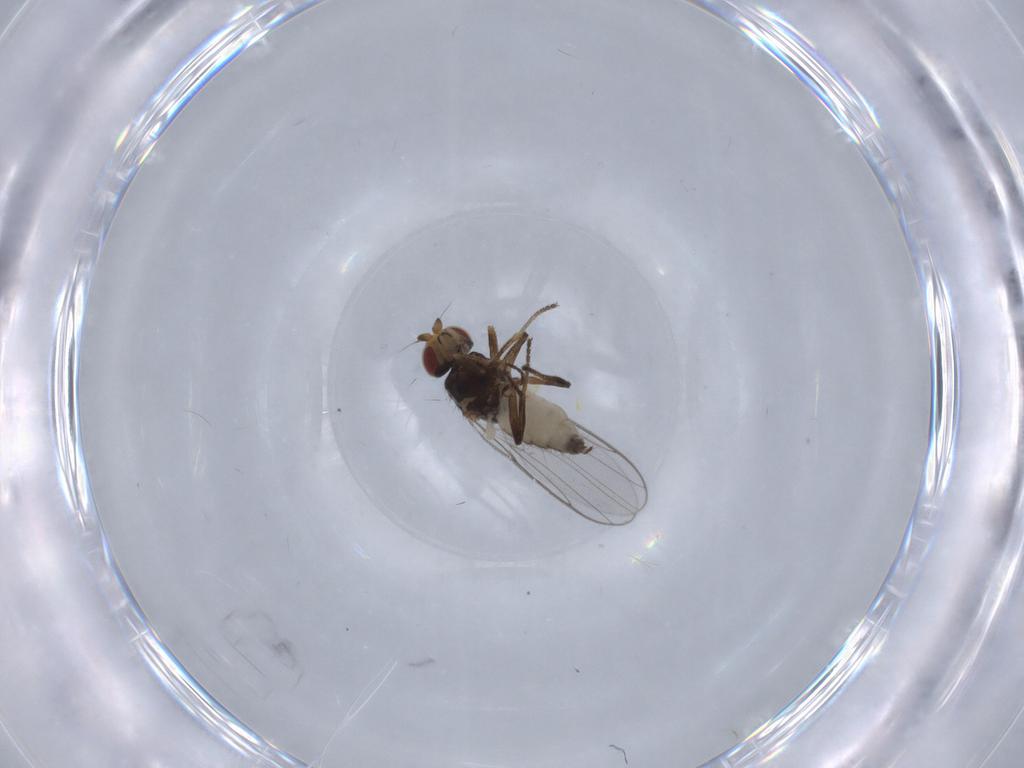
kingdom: Animalia
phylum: Arthropoda
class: Insecta
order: Diptera
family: Chloropidae
